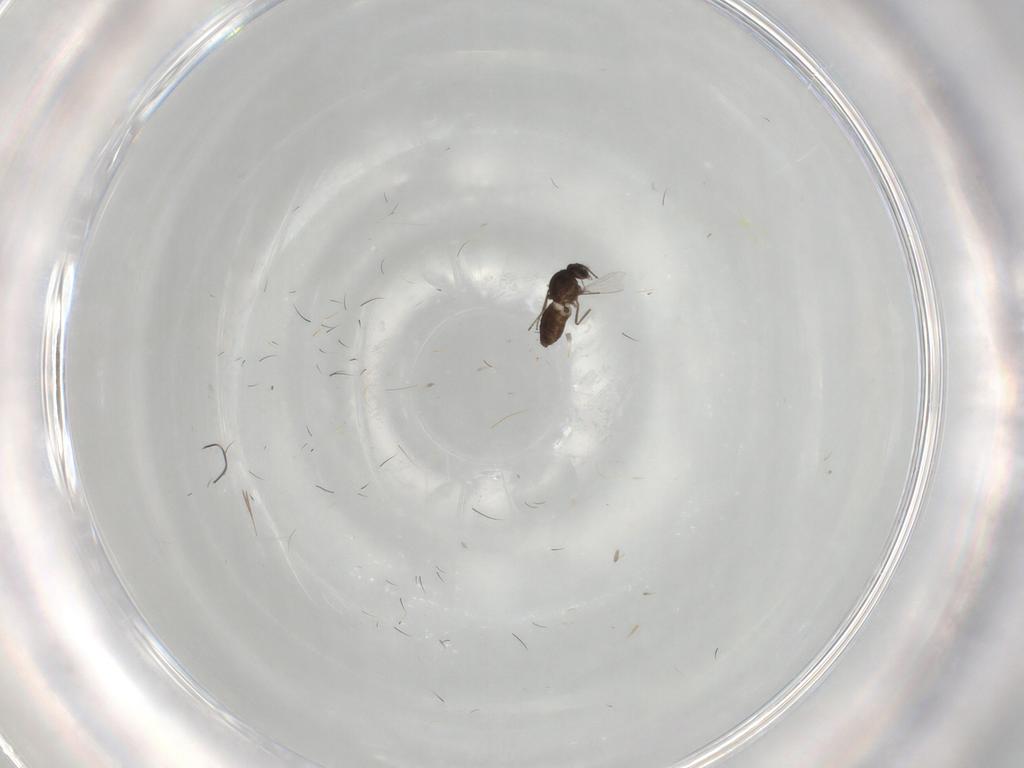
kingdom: Animalia
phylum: Arthropoda
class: Insecta
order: Diptera
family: Ceratopogonidae
